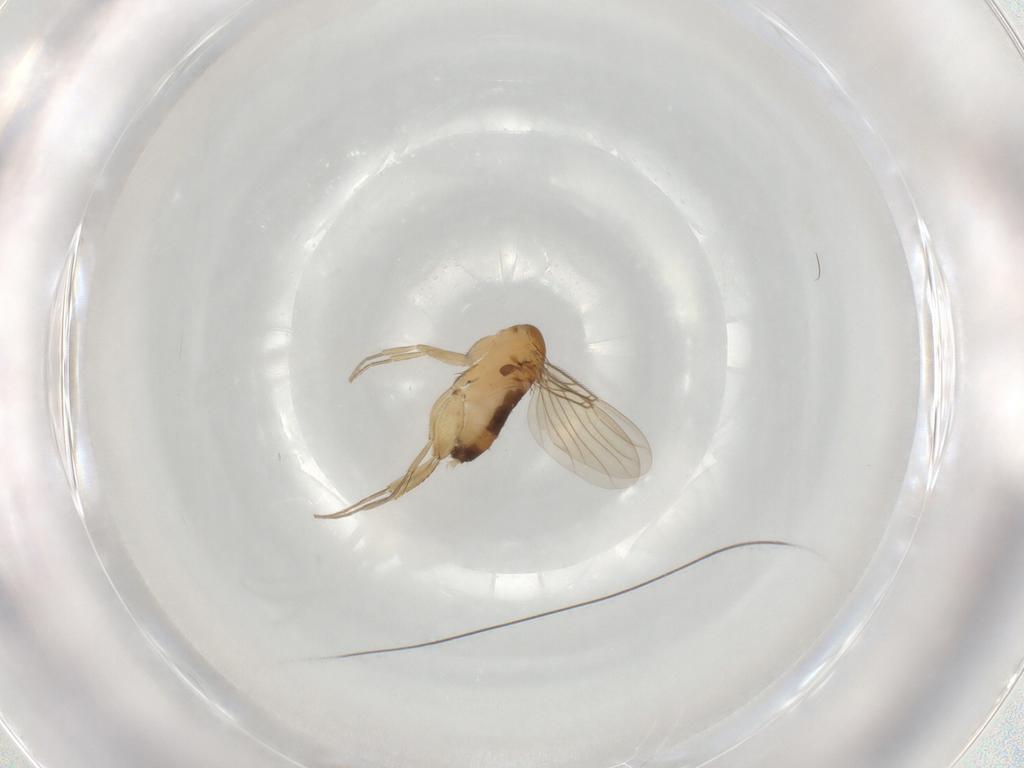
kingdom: Animalia
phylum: Arthropoda
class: Insecta
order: Diptera
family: Phoridae
